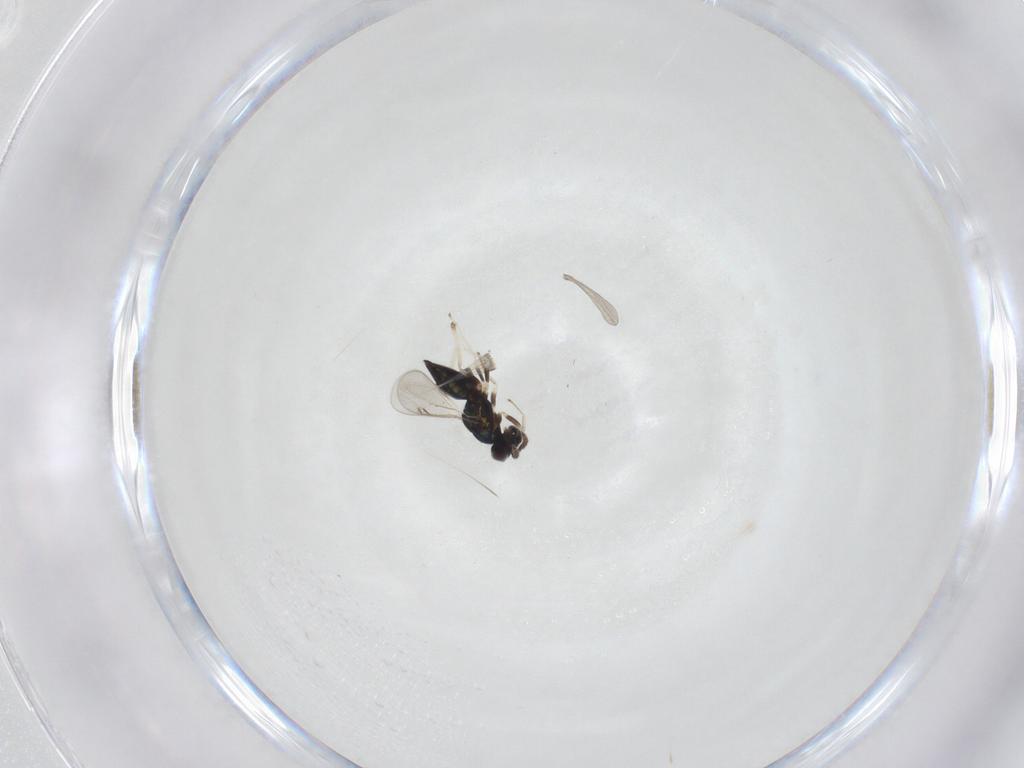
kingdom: Animalia
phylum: Arthropoda
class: Insecta
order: Hymenoptera
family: Eulophidae
